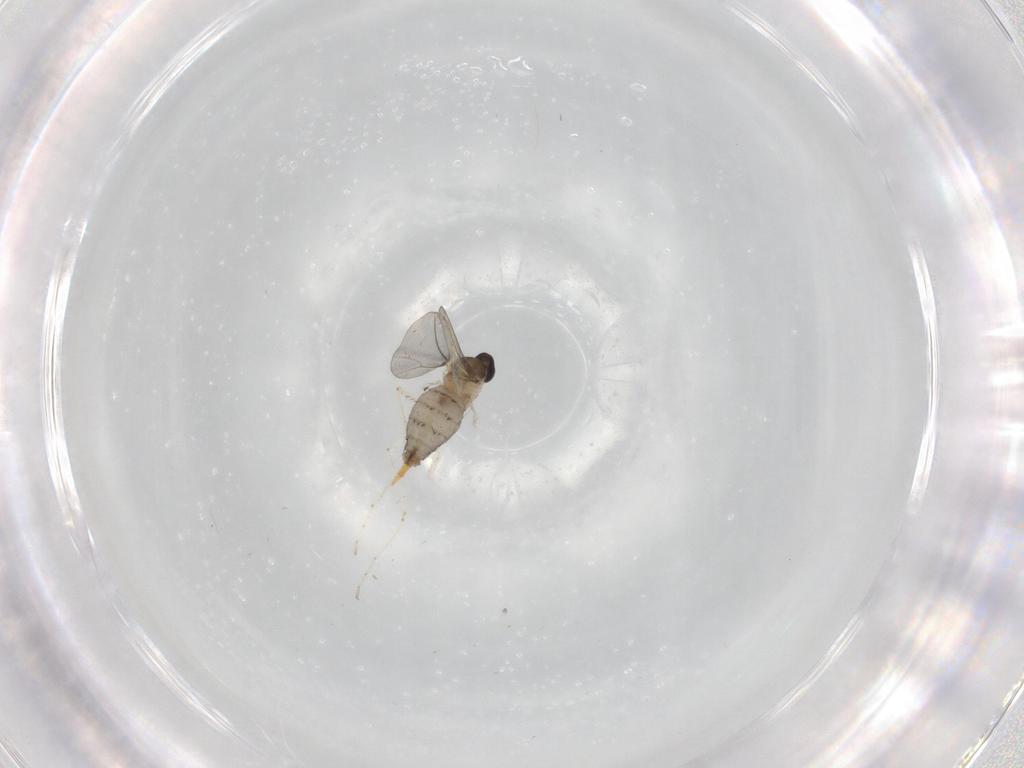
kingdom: Animalia
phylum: Arthropoda
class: Insecta
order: Diptera
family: Cecidomyiidae
